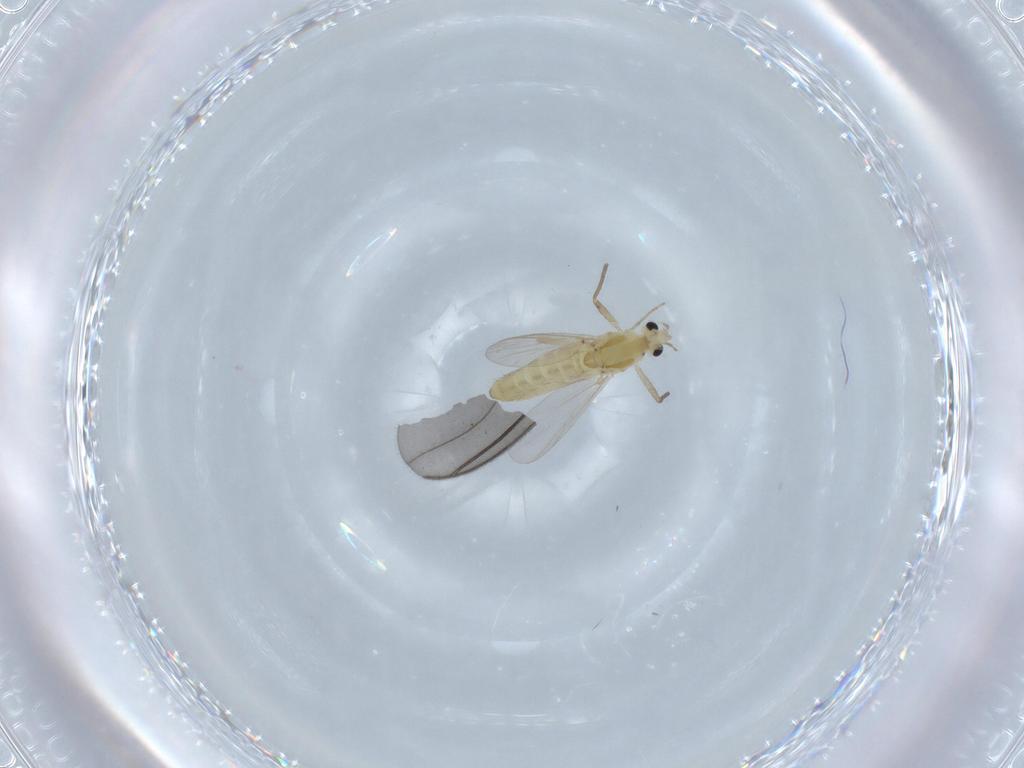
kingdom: Animalia
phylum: Arthropoda
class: Insecta
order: Diptera
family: Chironomidae
